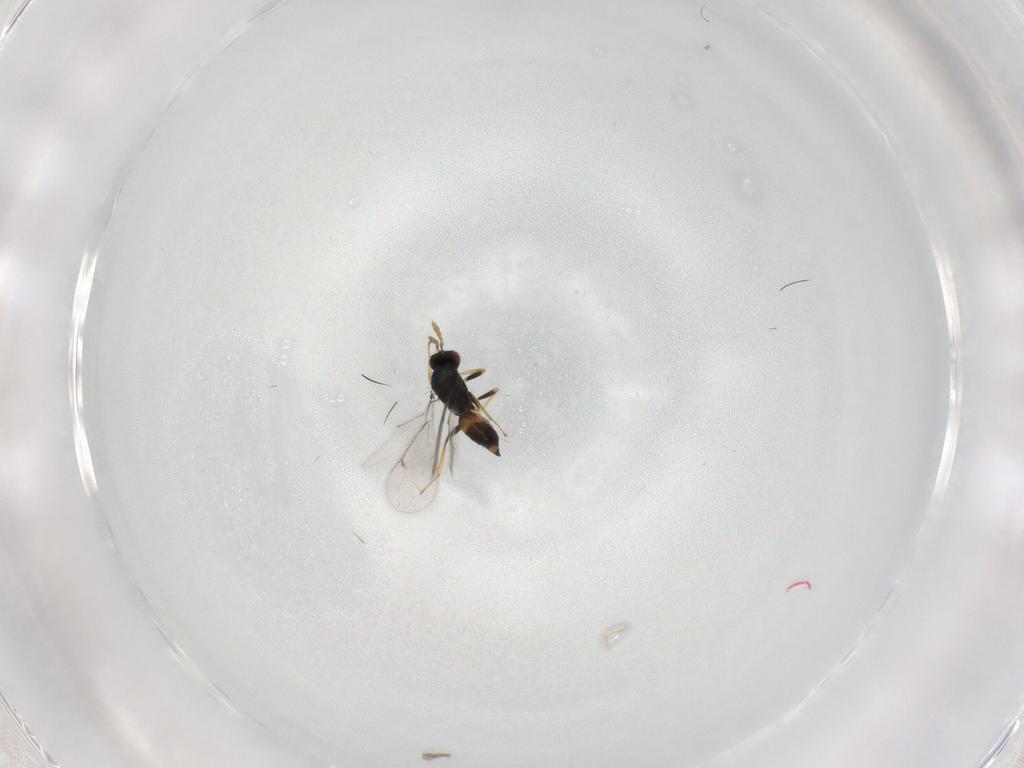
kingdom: Animalia
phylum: Arthropoda
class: Insecta
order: Hymenoptera
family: Eulophidae
